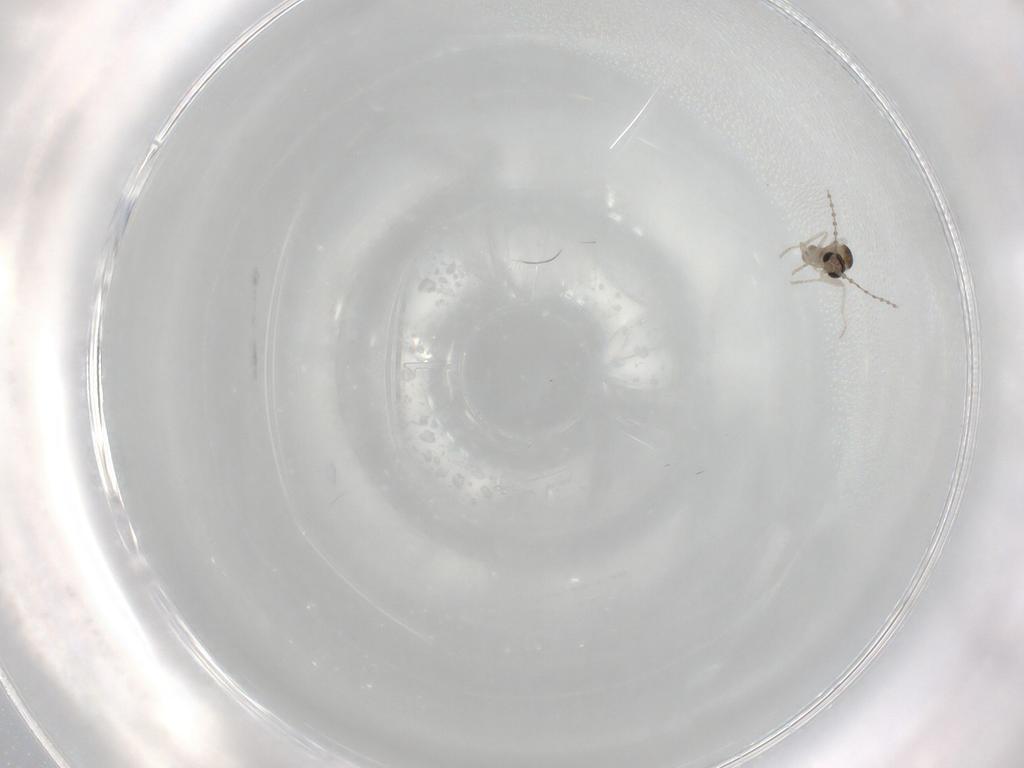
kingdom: Animalia
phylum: Arthropoda
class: Insecta
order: Diptera
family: Cecidomyiidae
